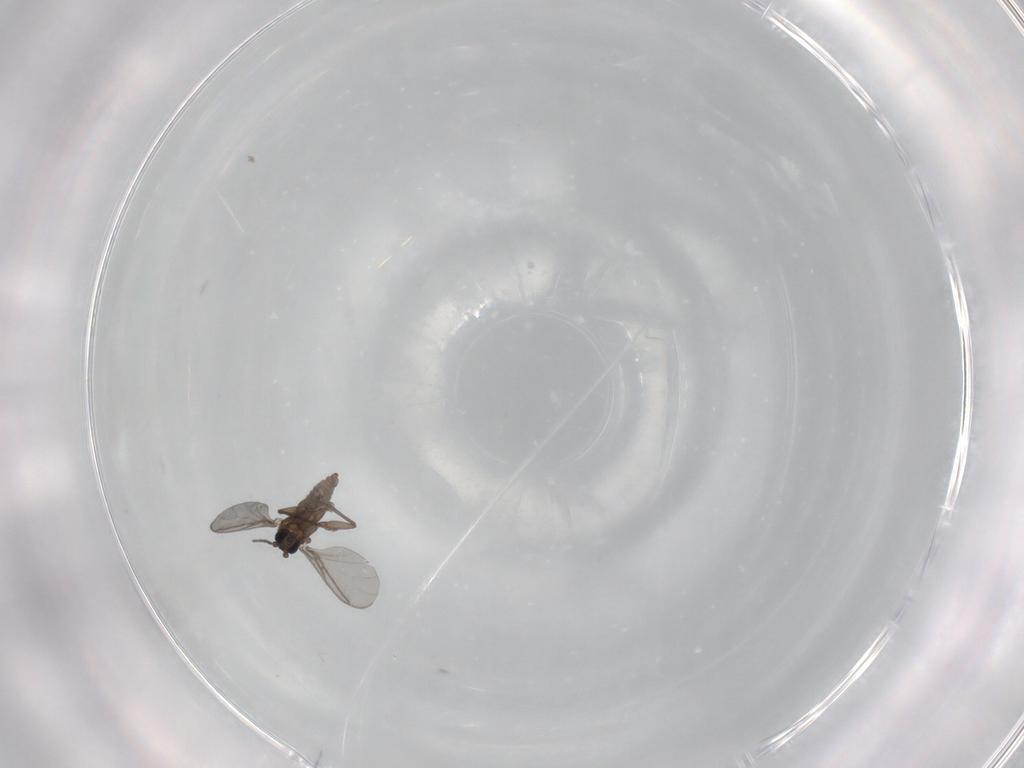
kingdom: Animalia
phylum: Arthropoda
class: Insecta
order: Diptera
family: Sciaridae
